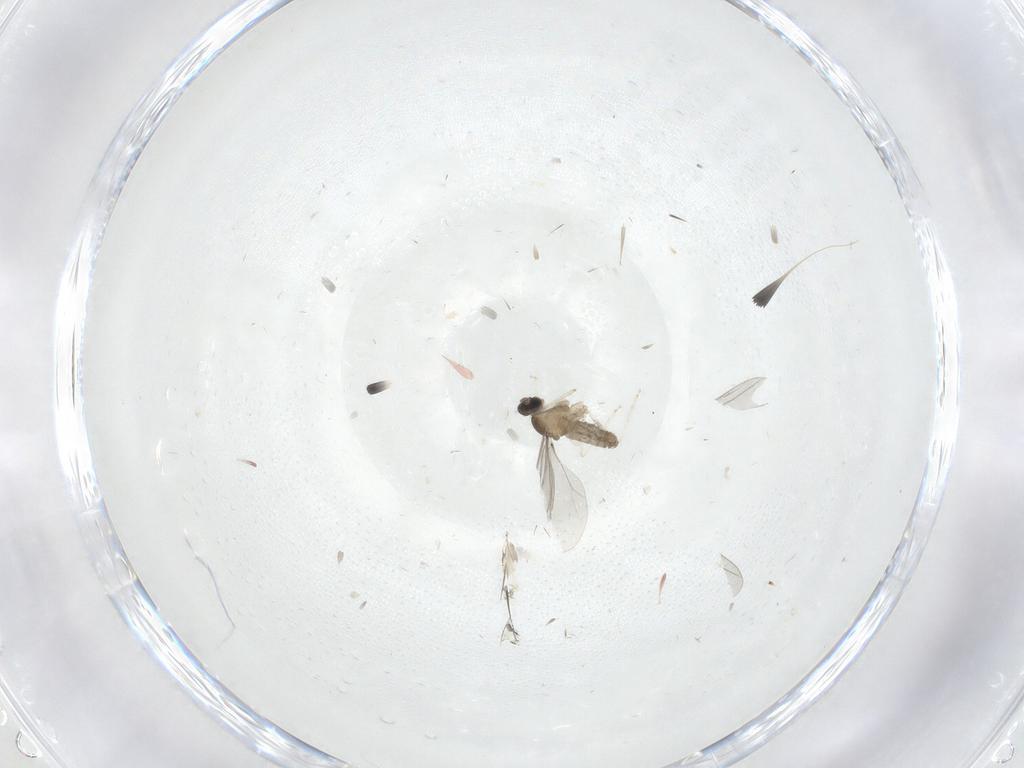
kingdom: Animalia
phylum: Arthropoda
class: Insecta
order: Diptera
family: Cecidomyiidae
